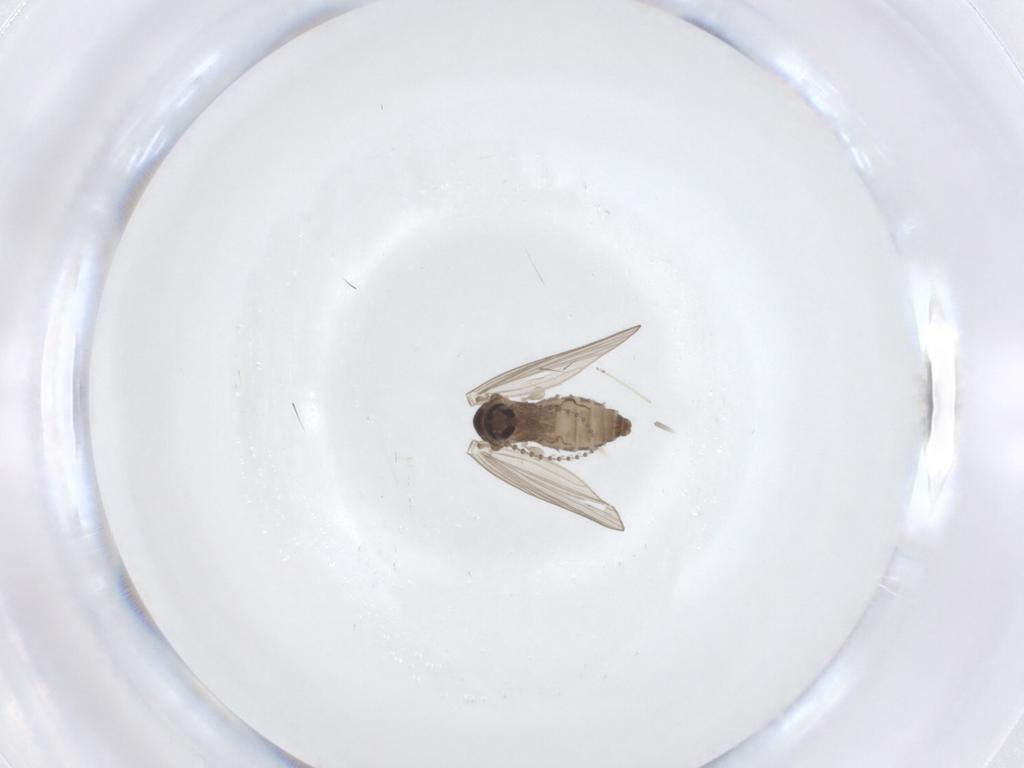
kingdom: Animalia
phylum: Arthropoda
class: Insecta
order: Diptera
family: Psychodidae
